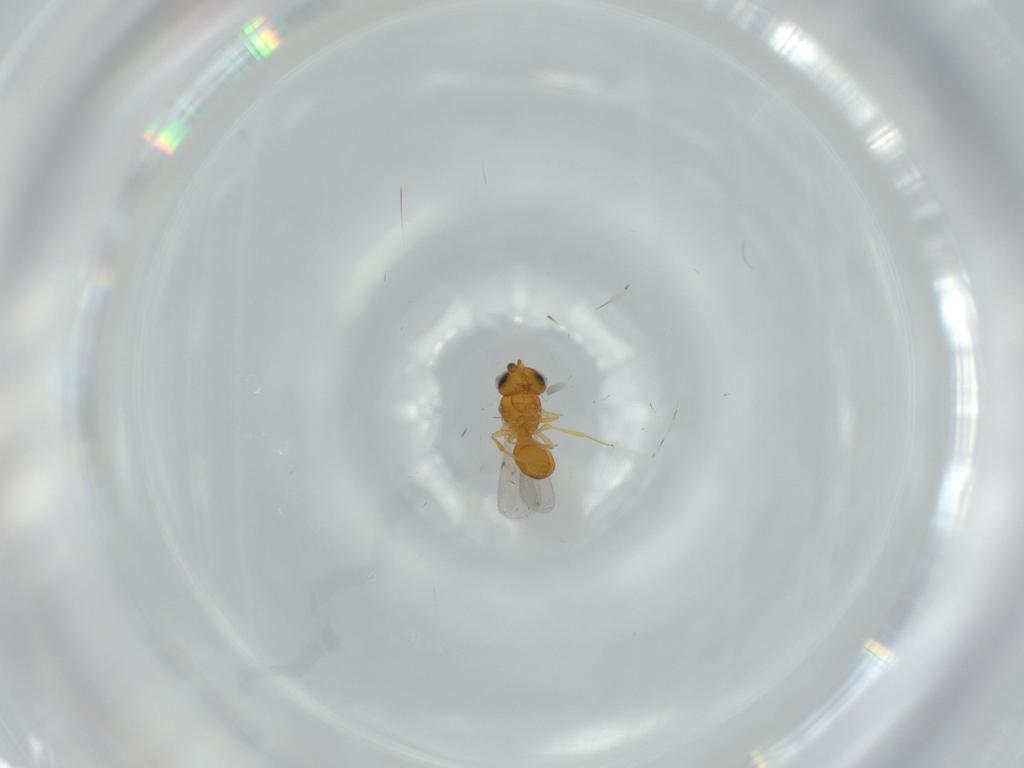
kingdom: Animalia
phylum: Arthropoda
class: Insecta
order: Hymenoptera
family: Scelionidae
